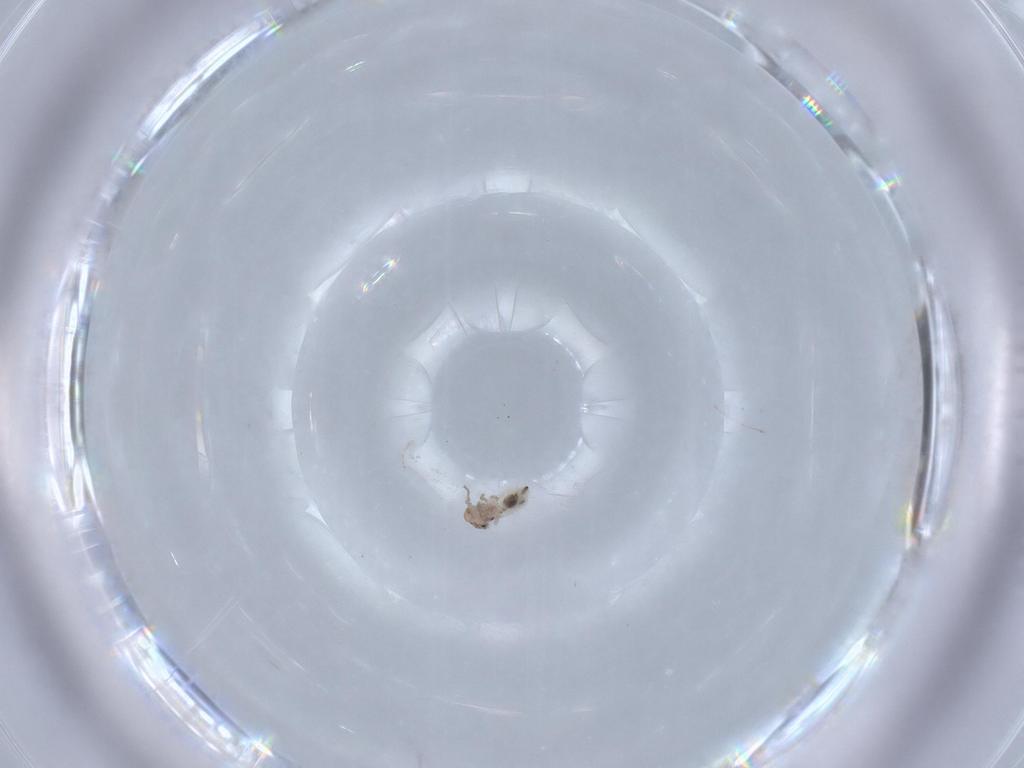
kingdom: Animalia
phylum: Arthropoda
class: Insecta
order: Psocodea
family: Lepidopsocidae
